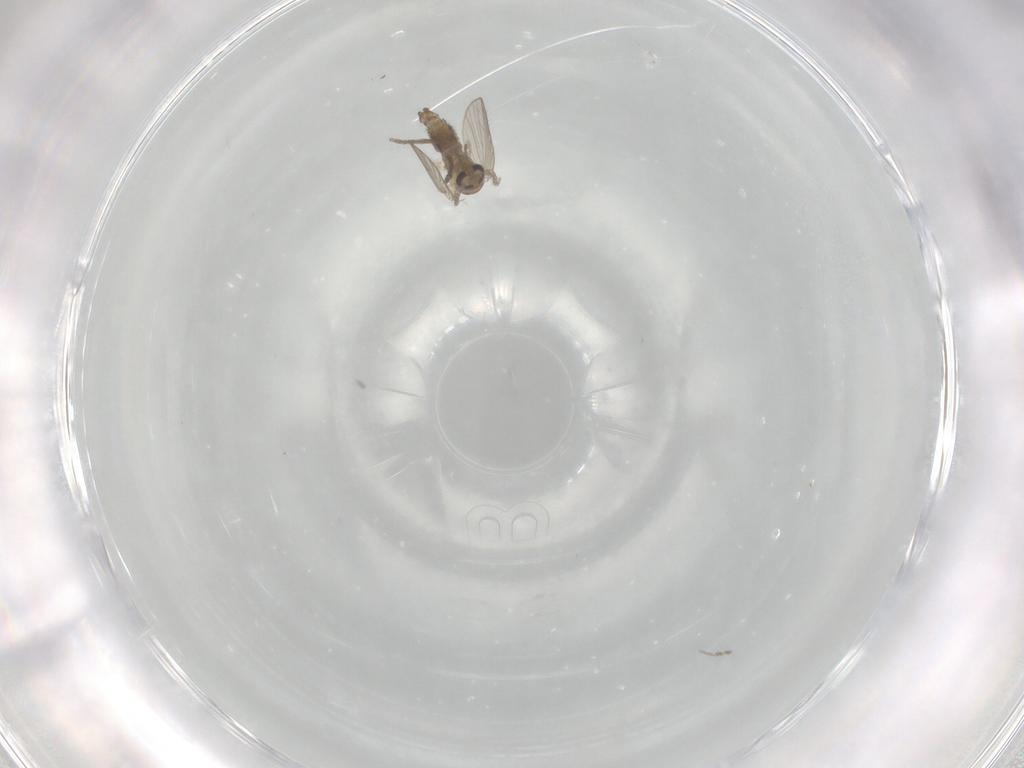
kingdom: Animalia
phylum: Arthropoda
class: Insecta
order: Diptera
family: Psychodidae
